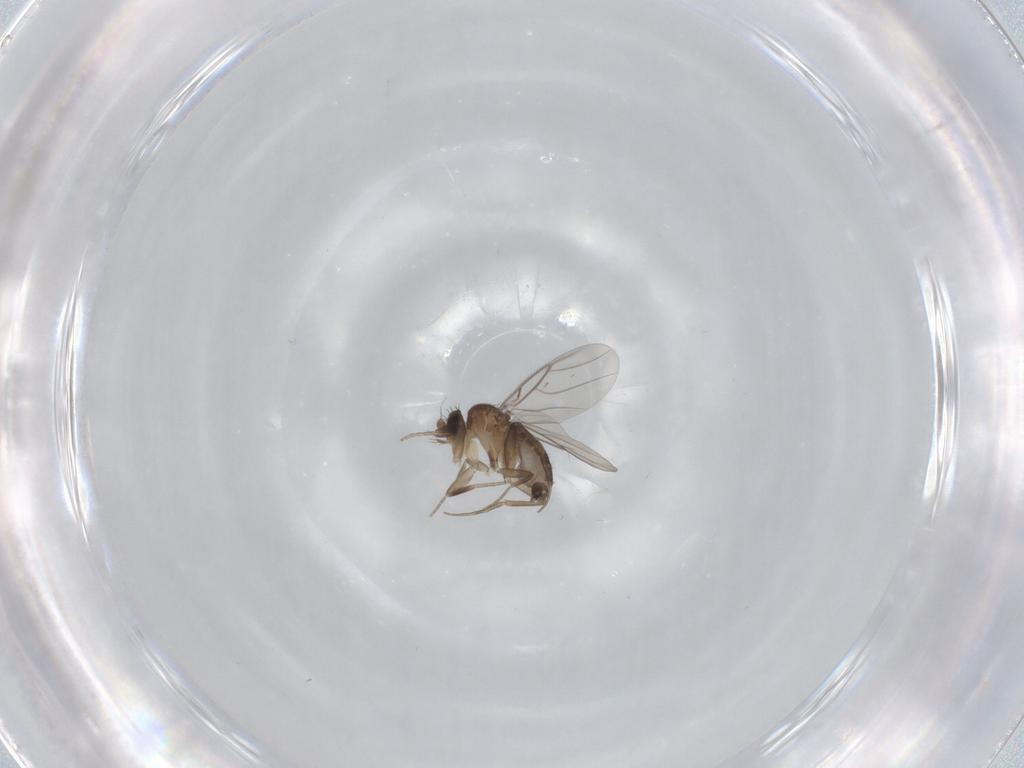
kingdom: Animalia
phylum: Arthropoda
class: Insecta
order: Diptera
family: Phoridae
